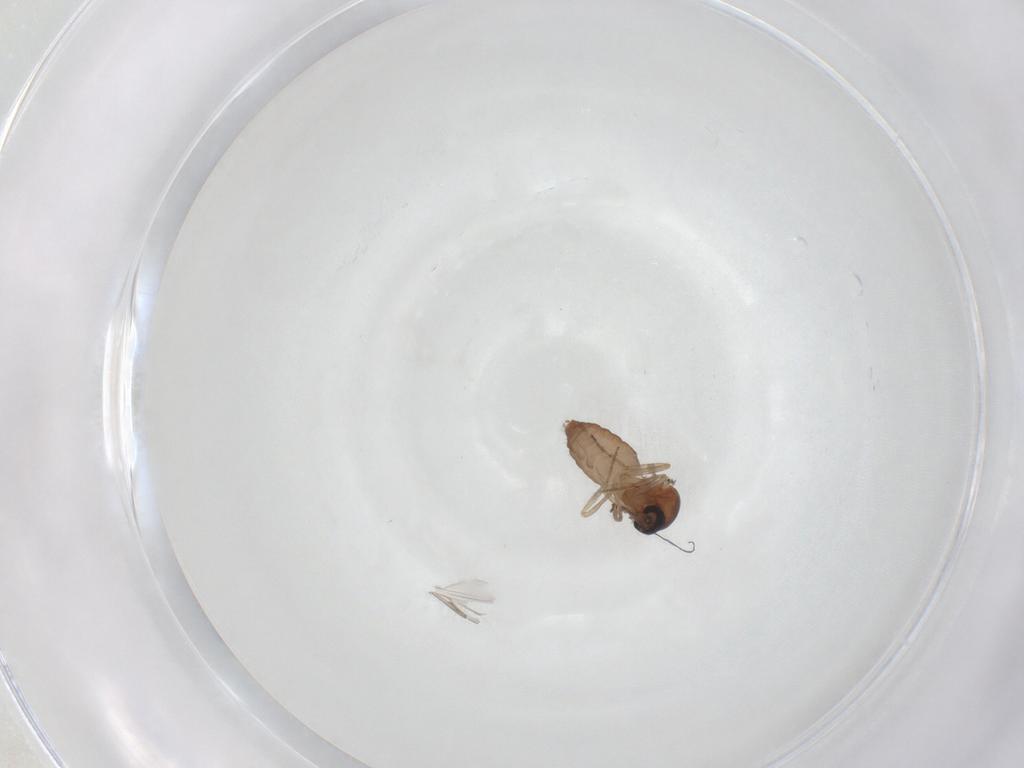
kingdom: Animalia
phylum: Arthropoda
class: Insecta
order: Diptera
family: Ceratopogonidae
